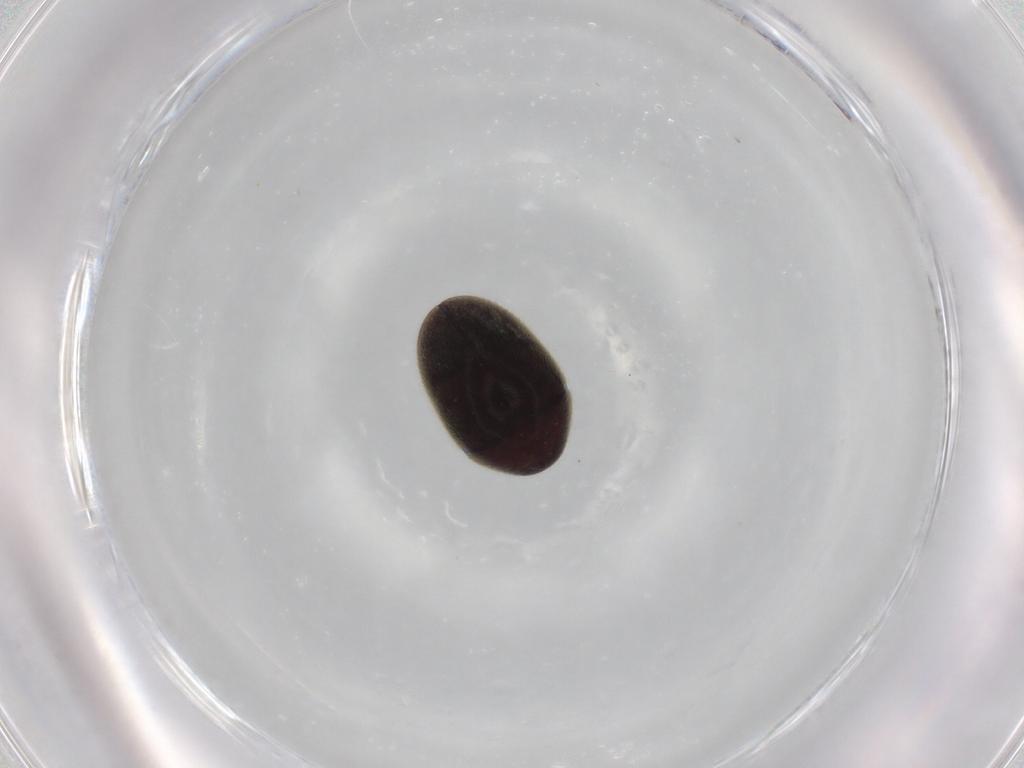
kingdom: Animalia
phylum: Arthropoda
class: Insecta
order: Coleoptera
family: Ptinidae
